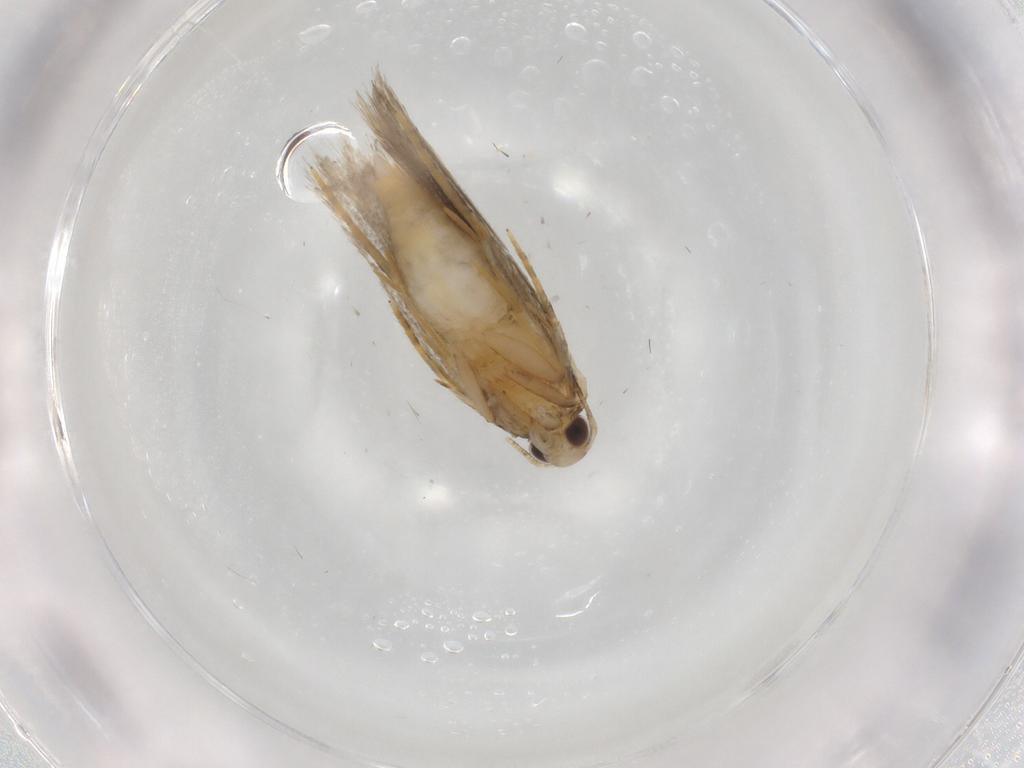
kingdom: Animalia
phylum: Arthropoda
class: Insecta
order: Lepidoptera
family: Autostichidae
